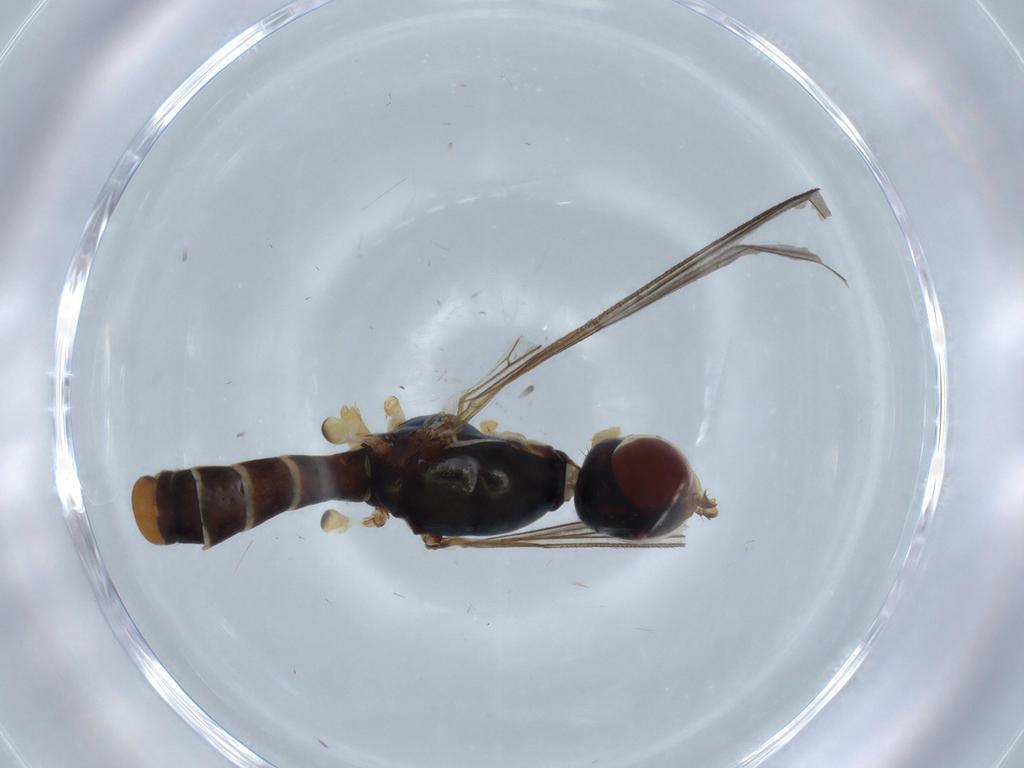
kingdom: Animalia
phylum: Arthropoda
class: Insecta
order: Diptera
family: Micropezidae
